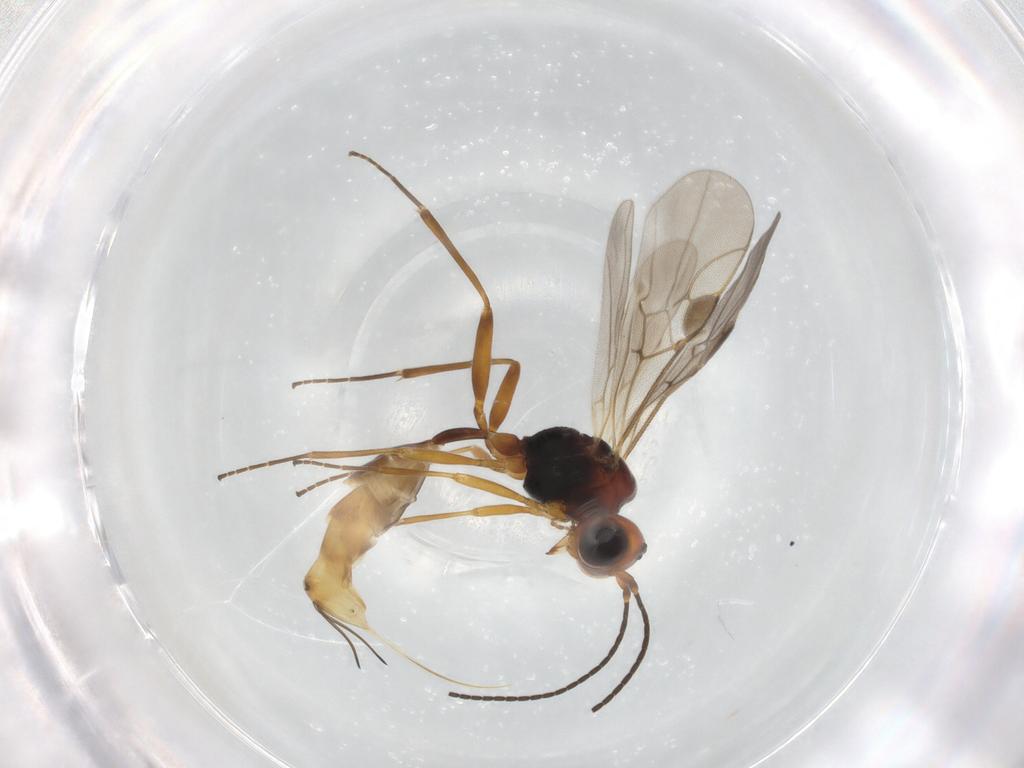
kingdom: Animalia
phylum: Arthropoda
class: Insecta
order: Hymenoptera
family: Braconidae
